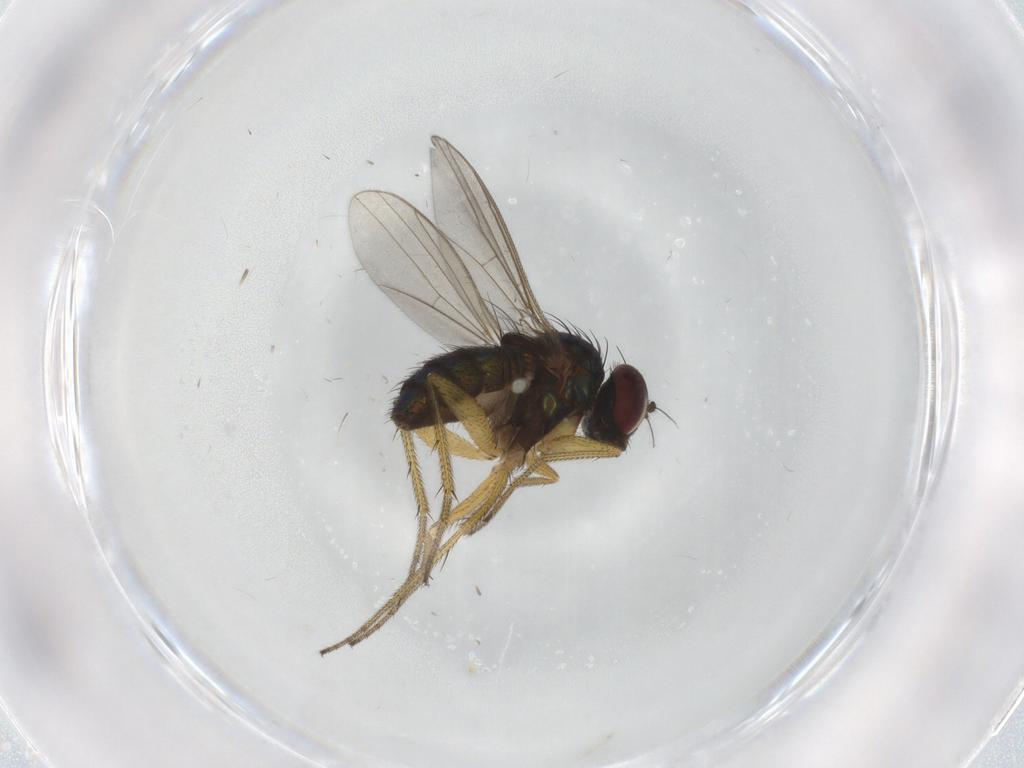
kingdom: Animalia
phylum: Arthropoda
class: Insecta
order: Diptera
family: Dolichopodidae
